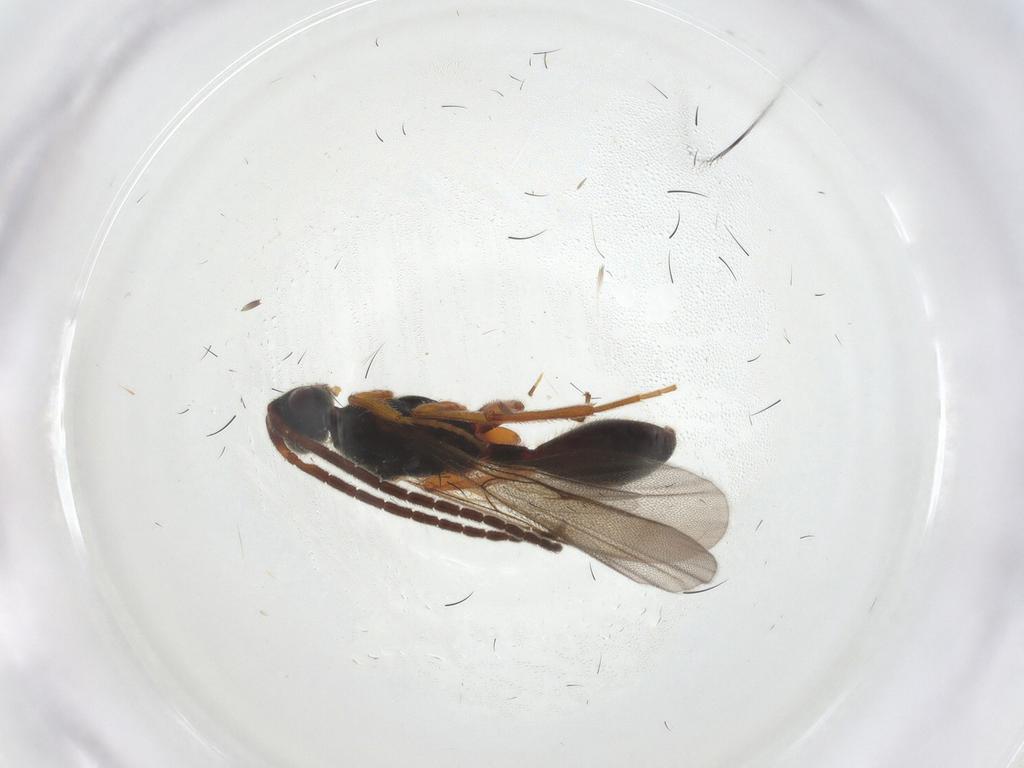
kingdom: Animalia
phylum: Arthropoda
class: Insecta
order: Hymenoptera
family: Diapriidae
